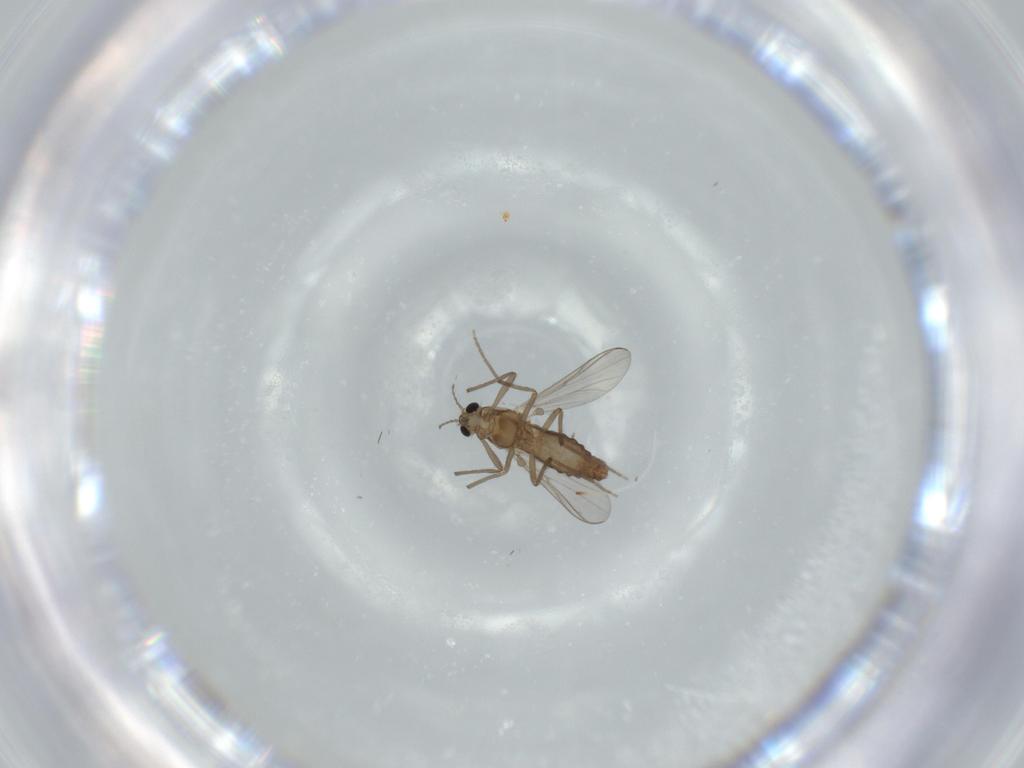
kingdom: Animalia
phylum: Arthropoda
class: Insecta
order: Diptera
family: Chironomidae
